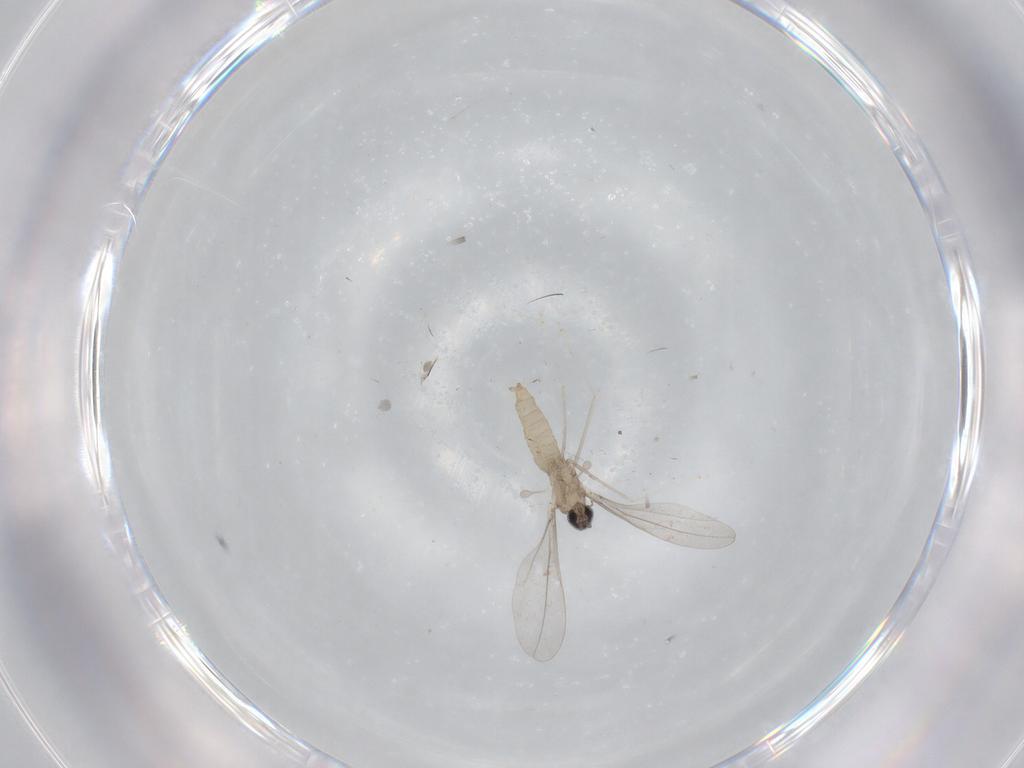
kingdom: Animalia
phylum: Arthropoda
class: Insecta
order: Diptera
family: Cecidomyiidae
